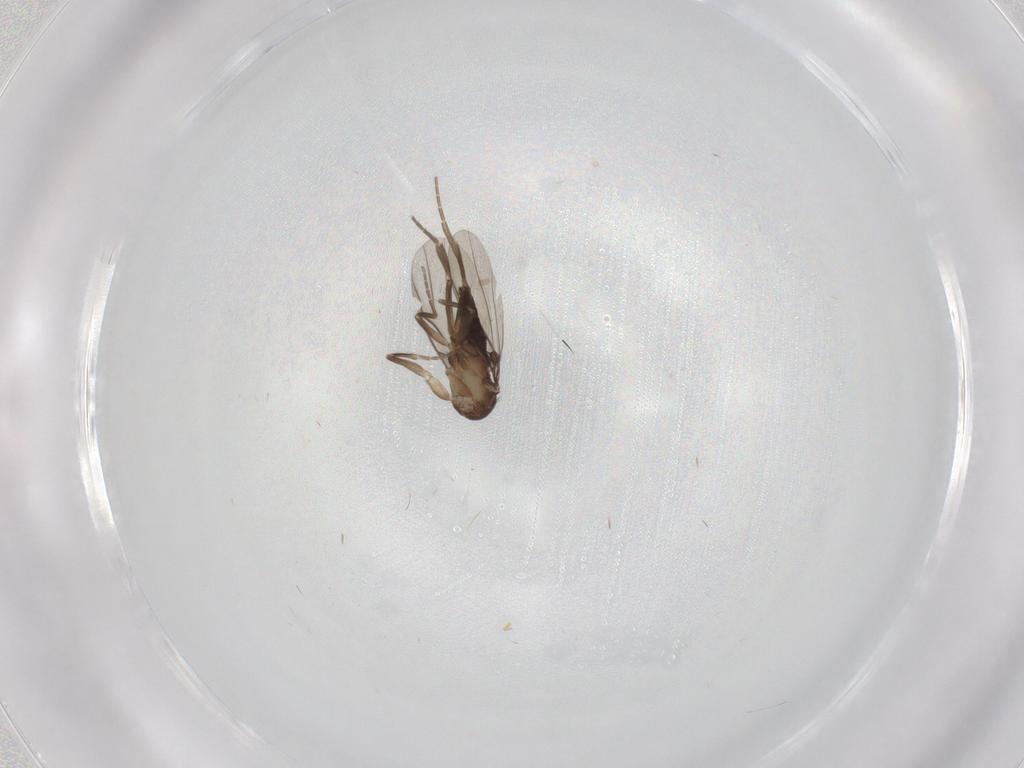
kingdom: Animalia
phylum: Arthropoda
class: Insecta
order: Diptera
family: Phoridae
